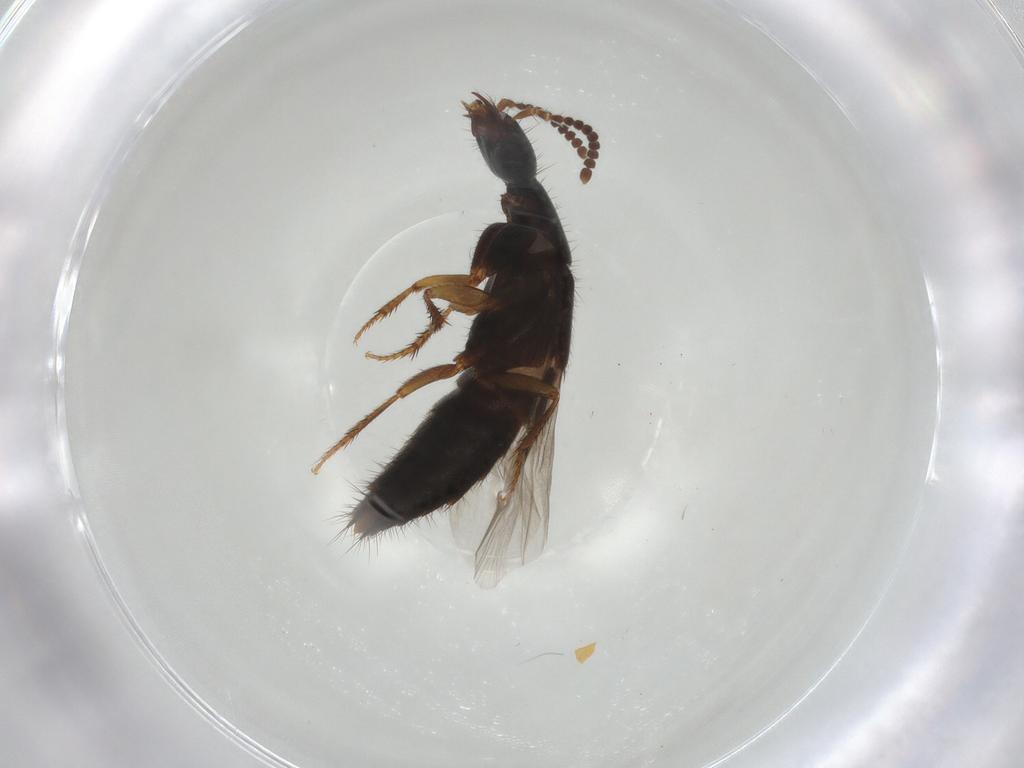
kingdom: Animalia
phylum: Arthropoda
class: Insecta
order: Coleoptera
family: Staphylinidae
